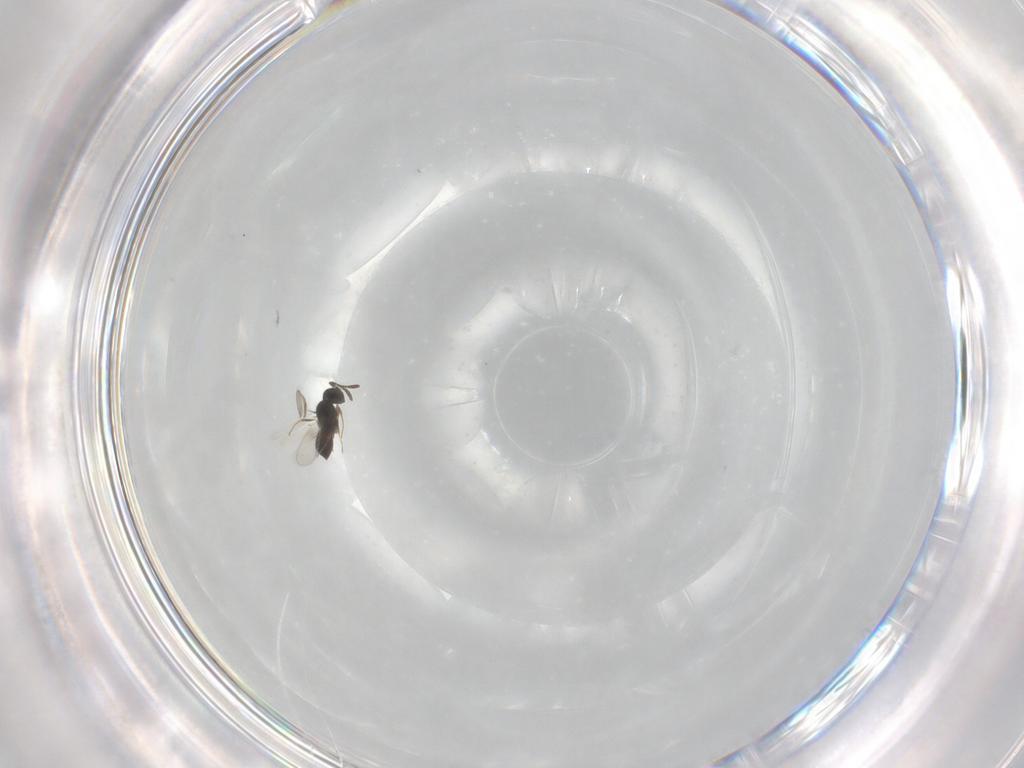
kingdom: Animalia
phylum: Arthropoda
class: Insecta
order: Hymenoptera
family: Scelionidae
